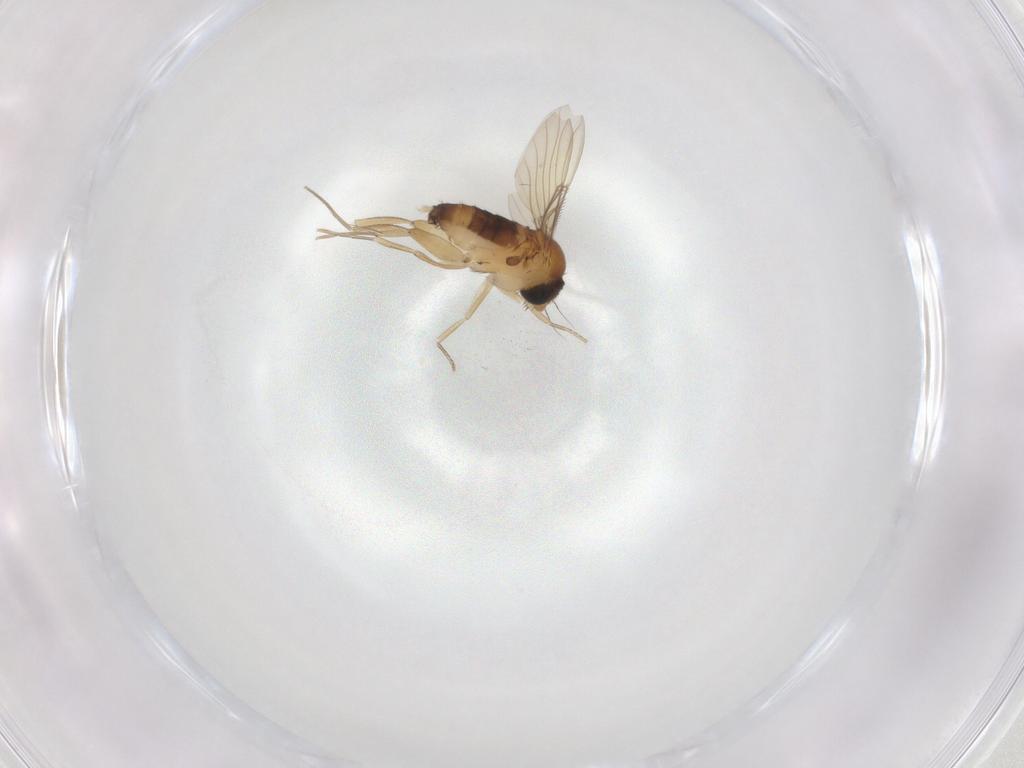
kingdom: Animalia
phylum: Arthropoda
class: Insecta
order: Diptera
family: Phoridae
